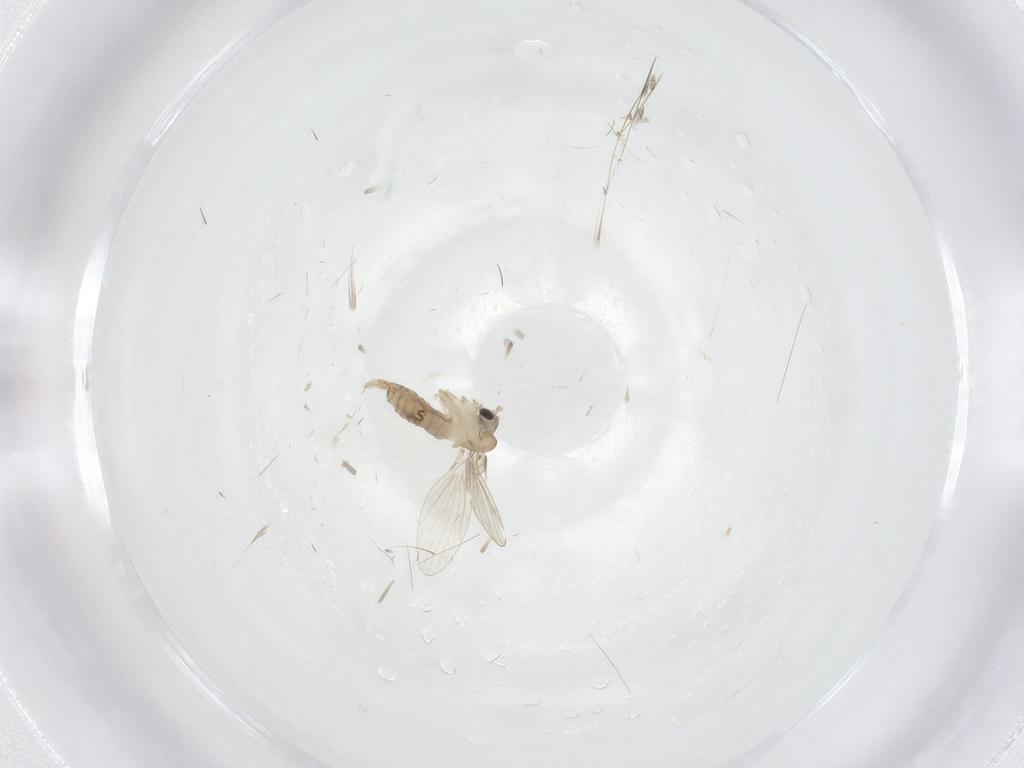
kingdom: Animalia
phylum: Arthropoda
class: Insecta
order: Diptera
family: Psychodidae
